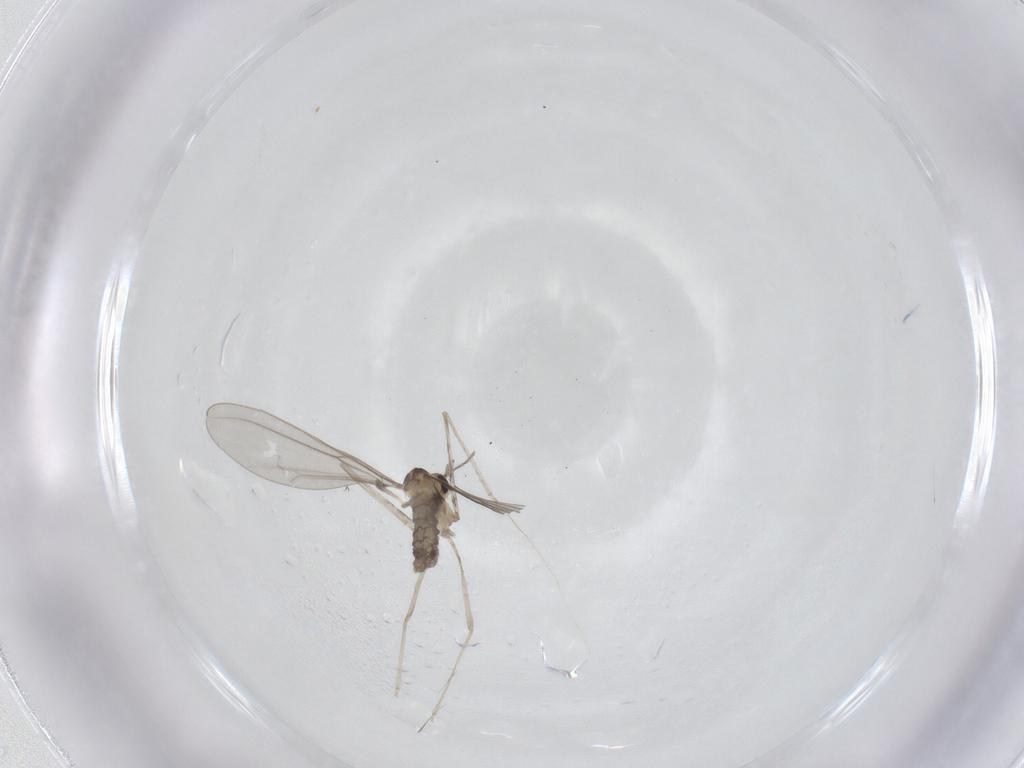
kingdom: Animalia
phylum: Arthropoda
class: Insecta
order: Diptera
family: Cecidomyiidae
